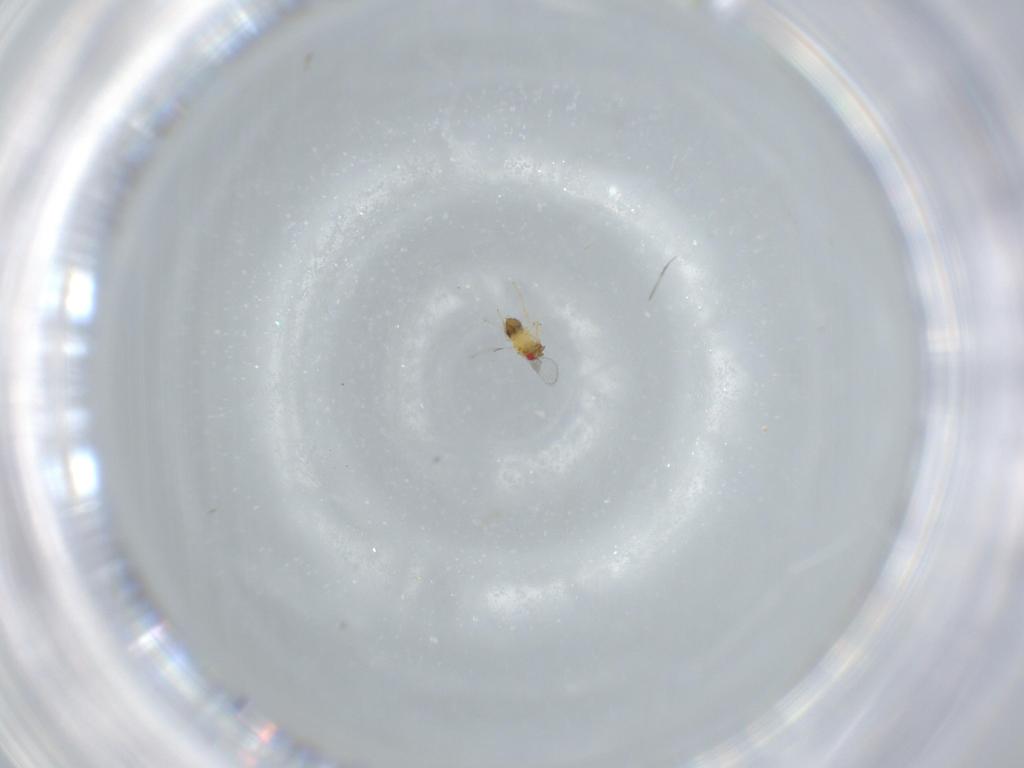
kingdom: Animalia
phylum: Arthropoda
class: Insecta
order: Hymenoptera
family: Trichogrammatidae
